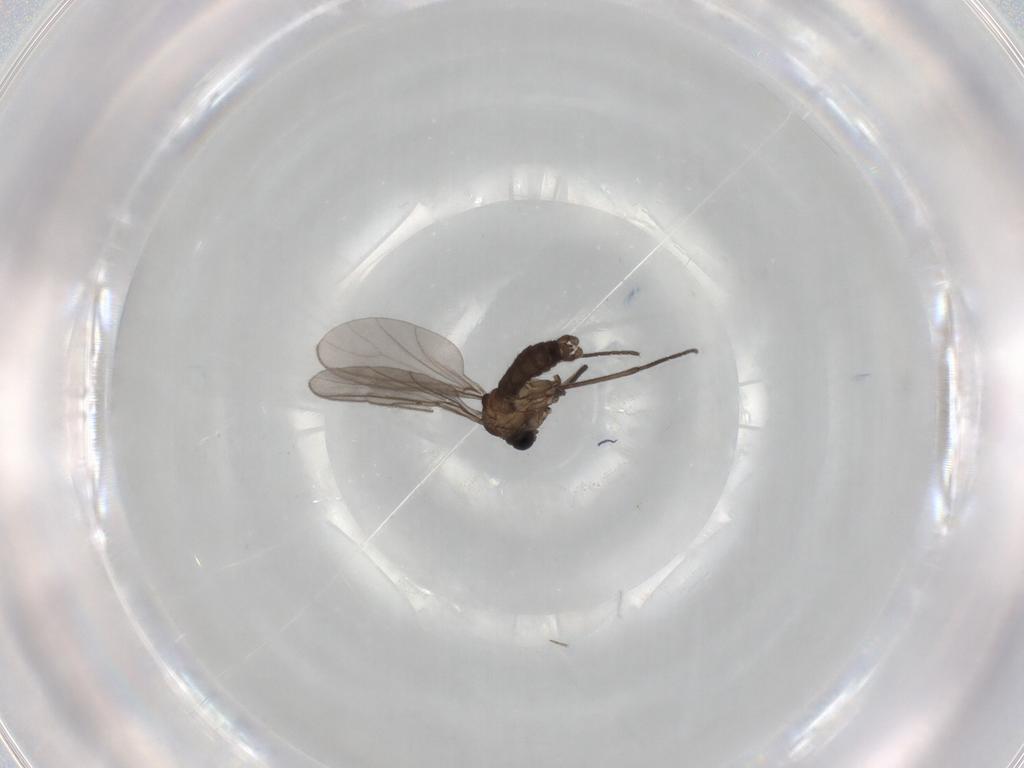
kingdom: Animalia
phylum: Arthropoda
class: Insecta
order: Diptera
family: Sciaridae
